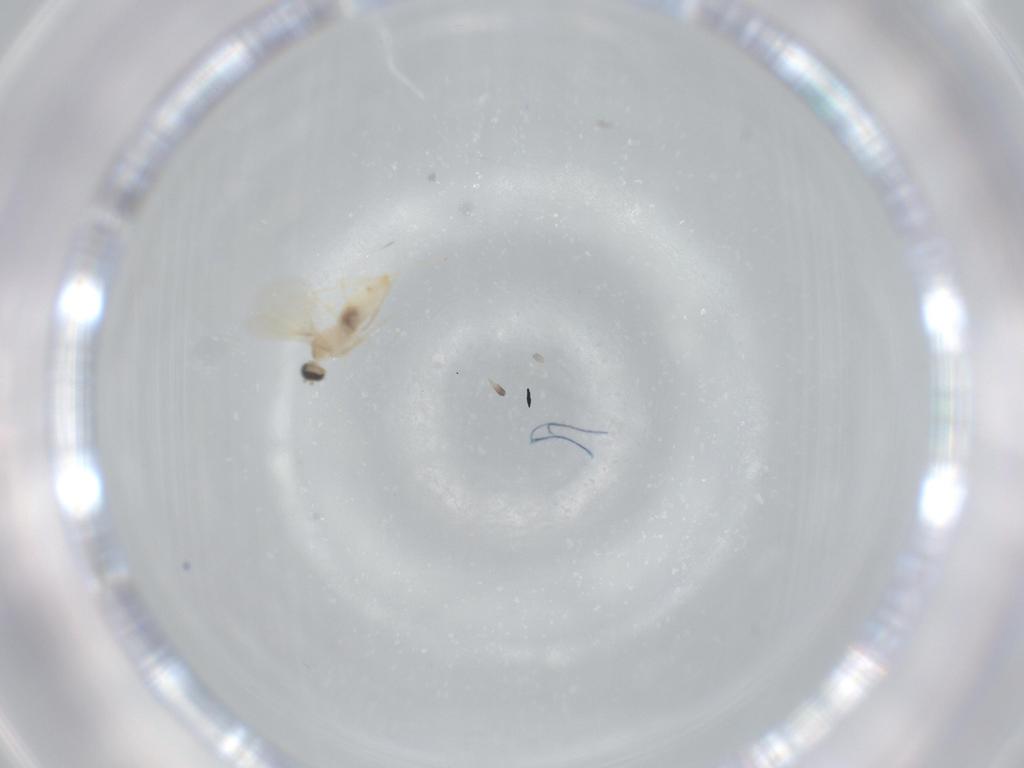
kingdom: Animalia
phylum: Arthropoda
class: Insecta
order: Diptera
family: Cecidomyiidae
